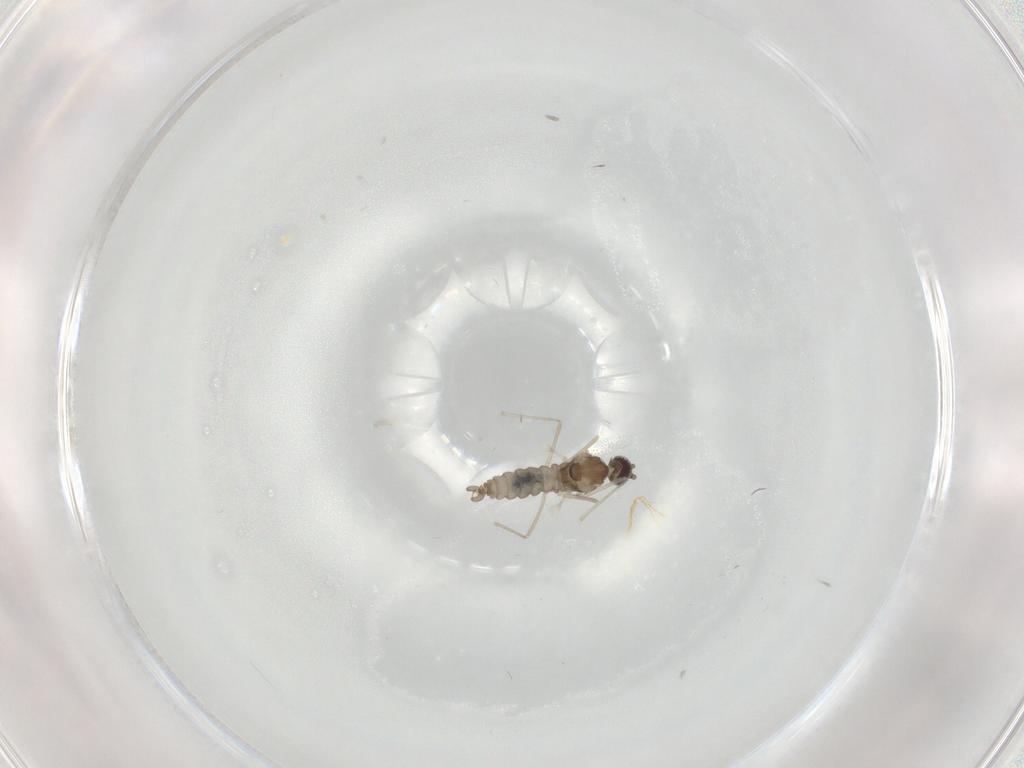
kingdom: Animalia
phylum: Arthropoda
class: Insecta
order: Diptera
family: Cecidomyiidae
